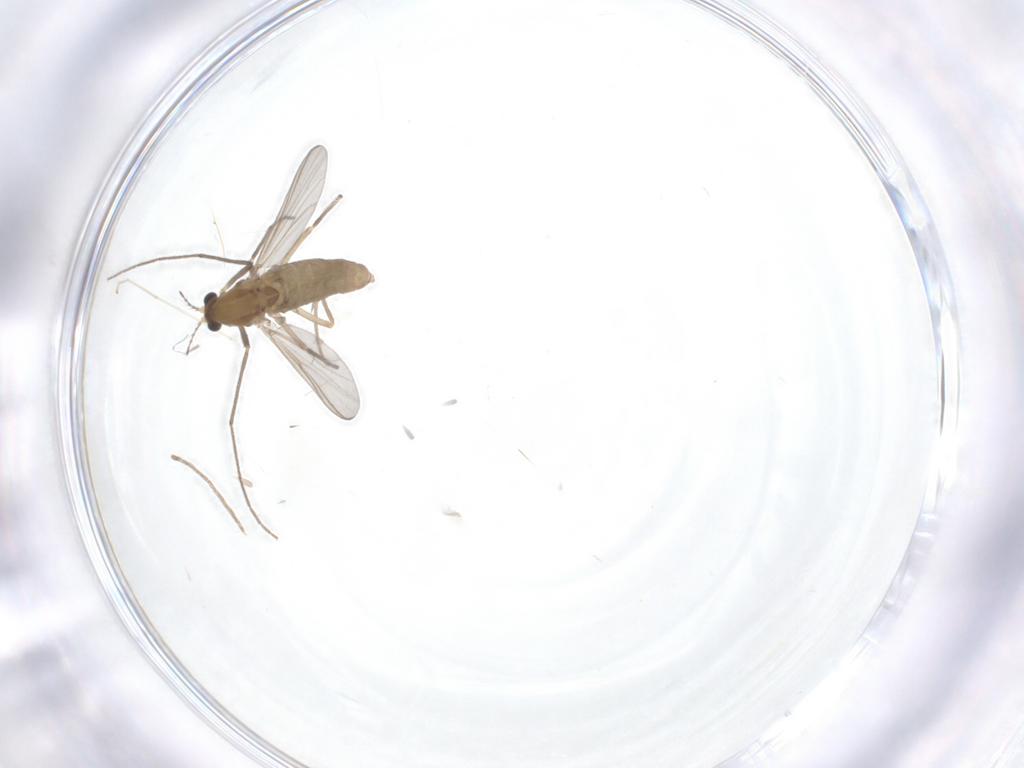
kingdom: Animalia
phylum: Arthropoda
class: Insecta
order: Diptera
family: Chironomidae
